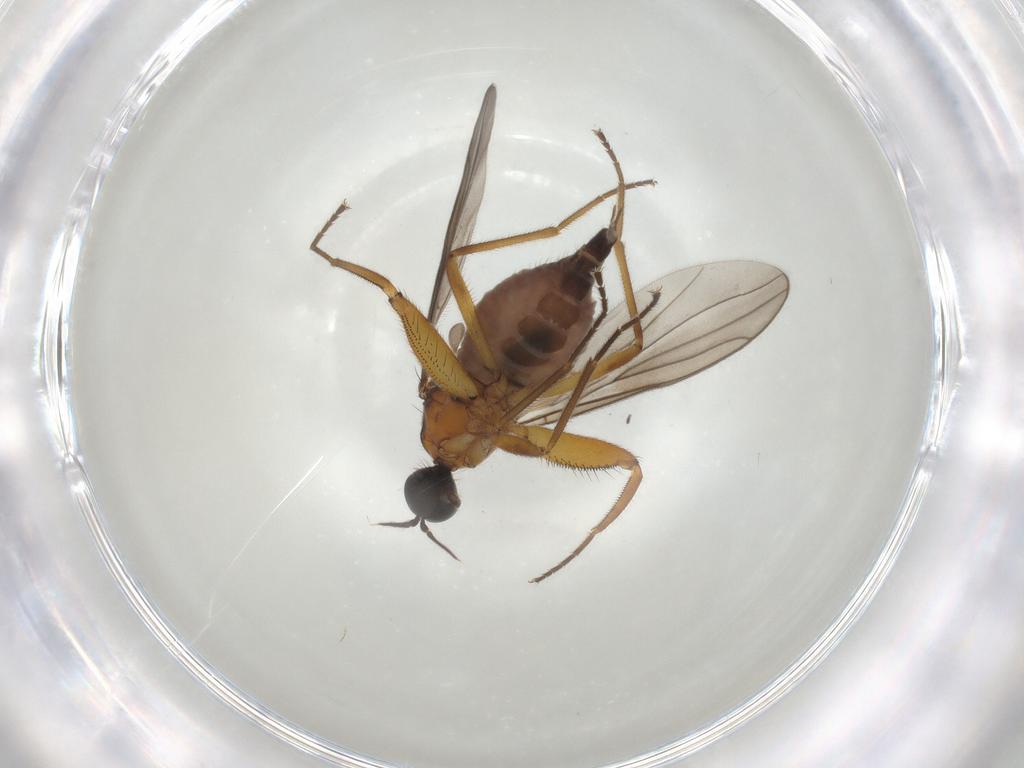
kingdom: Animalia
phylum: Arthropoda
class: Insecta
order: Diptera
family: Hybotidae
